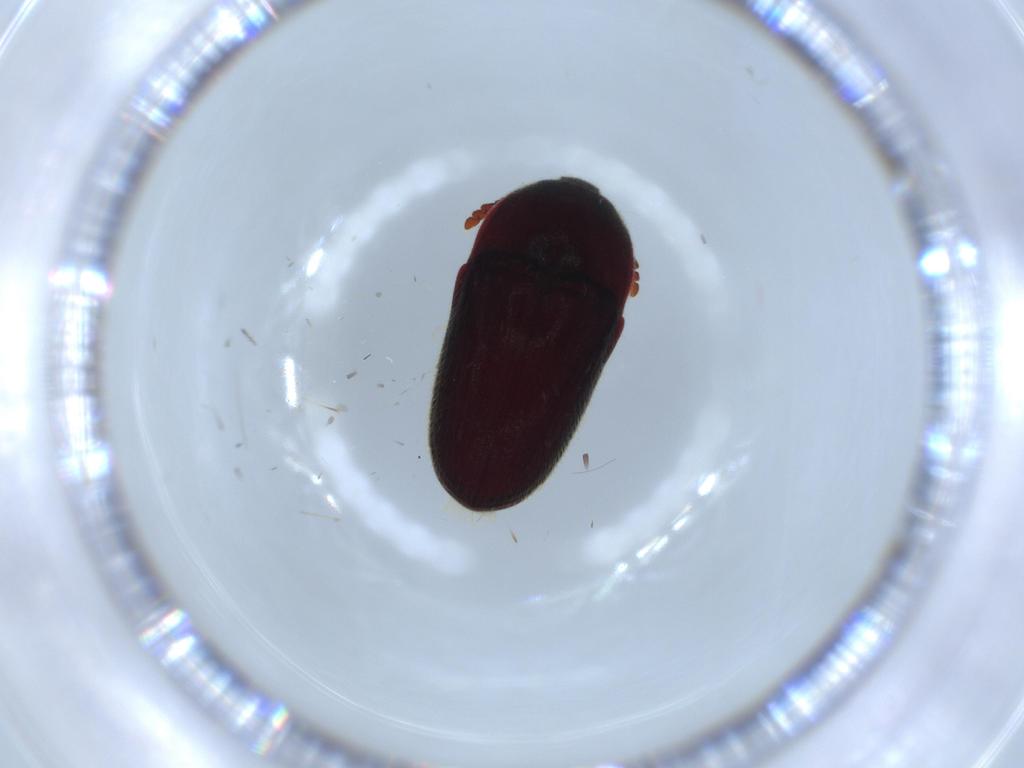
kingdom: Animalia
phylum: Arthropoda
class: Insecta
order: Coleoptera
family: Throscidae
